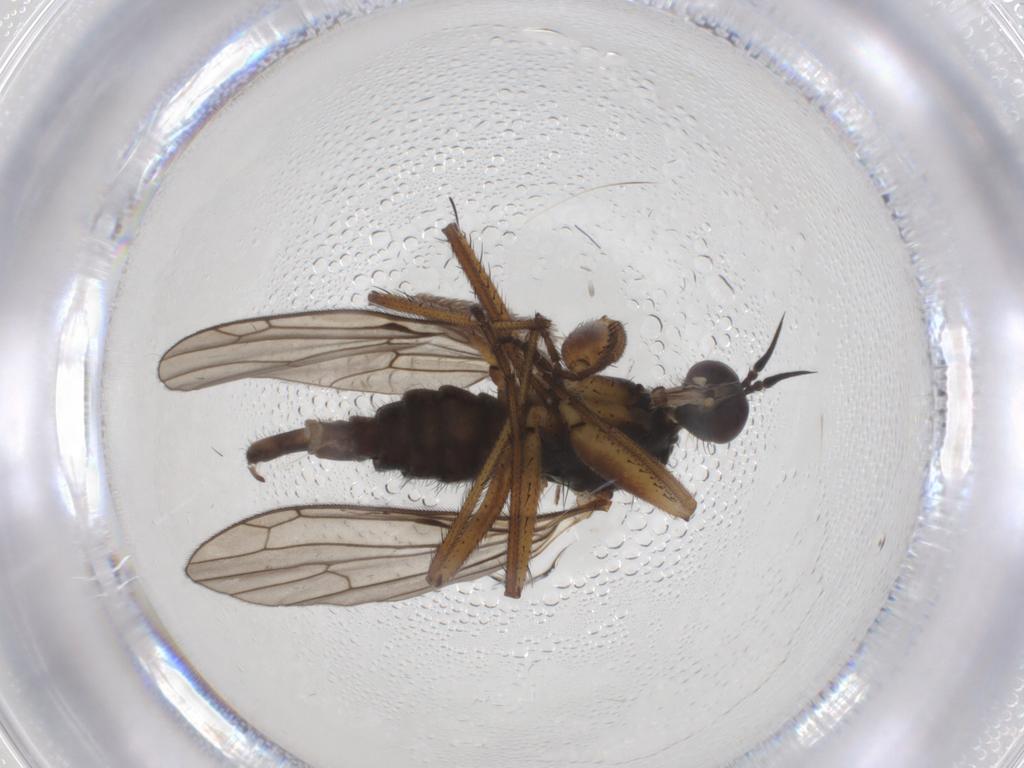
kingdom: Animalia
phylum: Arthropoda
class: Insecta
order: Diptera
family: Empididae
